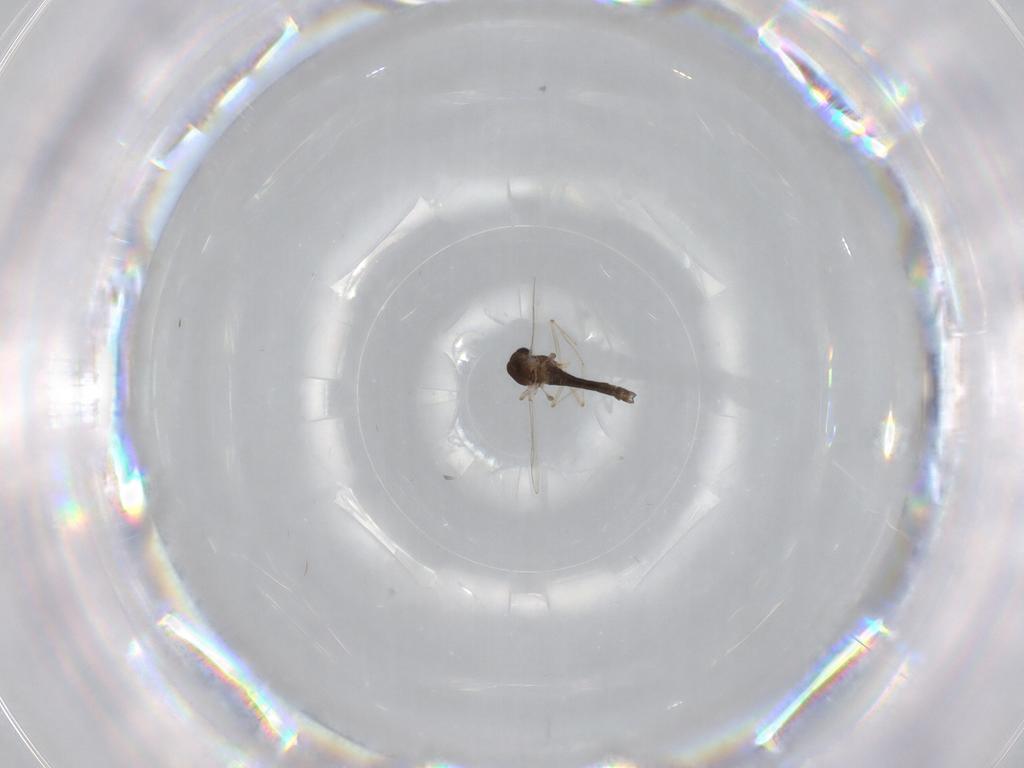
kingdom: Animalia
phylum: Arthropoda
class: Insecta
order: Diptera
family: Chironomidae
